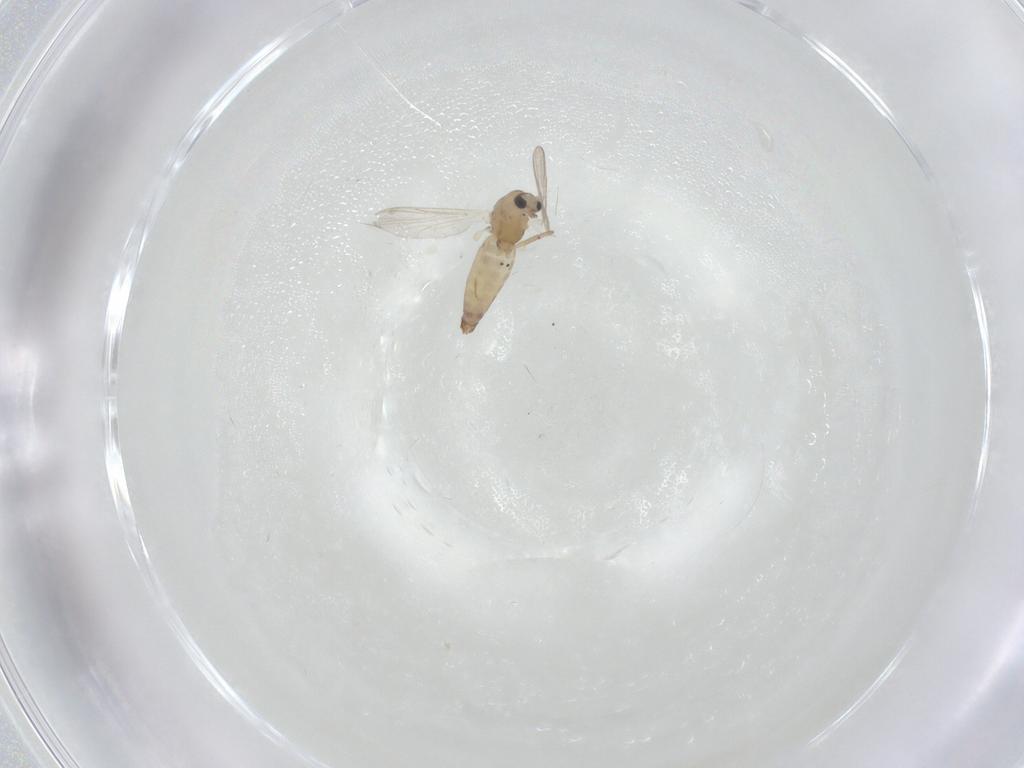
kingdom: Animalia
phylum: Arthropoda
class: Insecta
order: Diptera
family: Chironomidae
